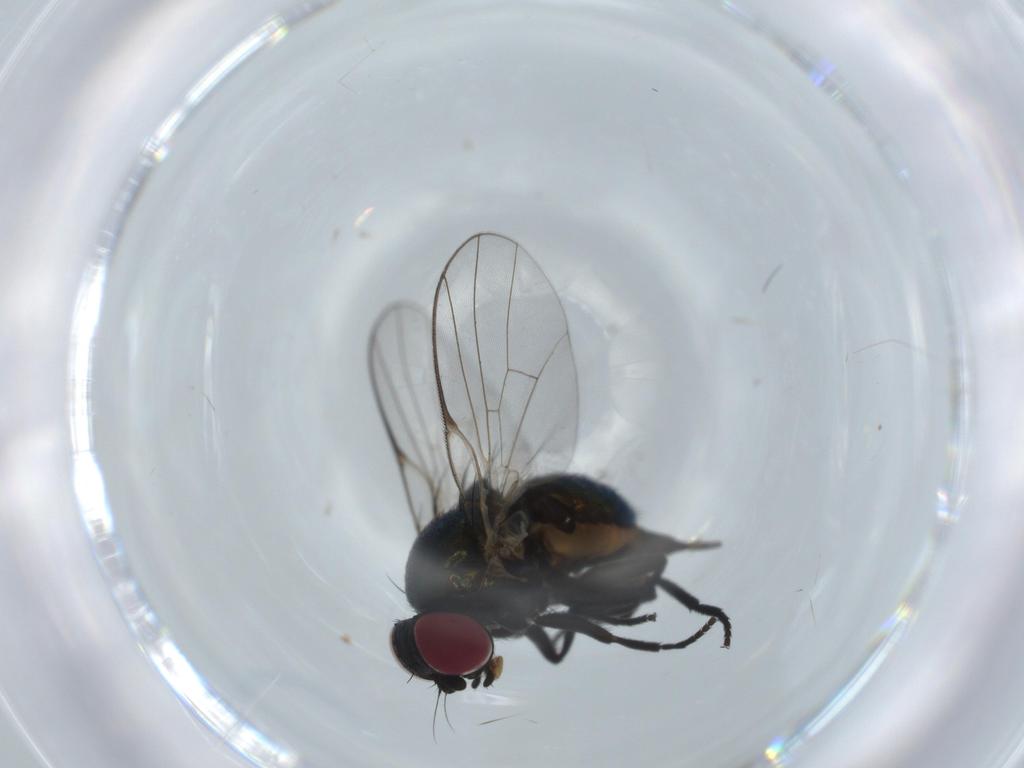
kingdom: Animalia
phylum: Arthropoda
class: Insecta
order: Diptera
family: Agromyzidae
